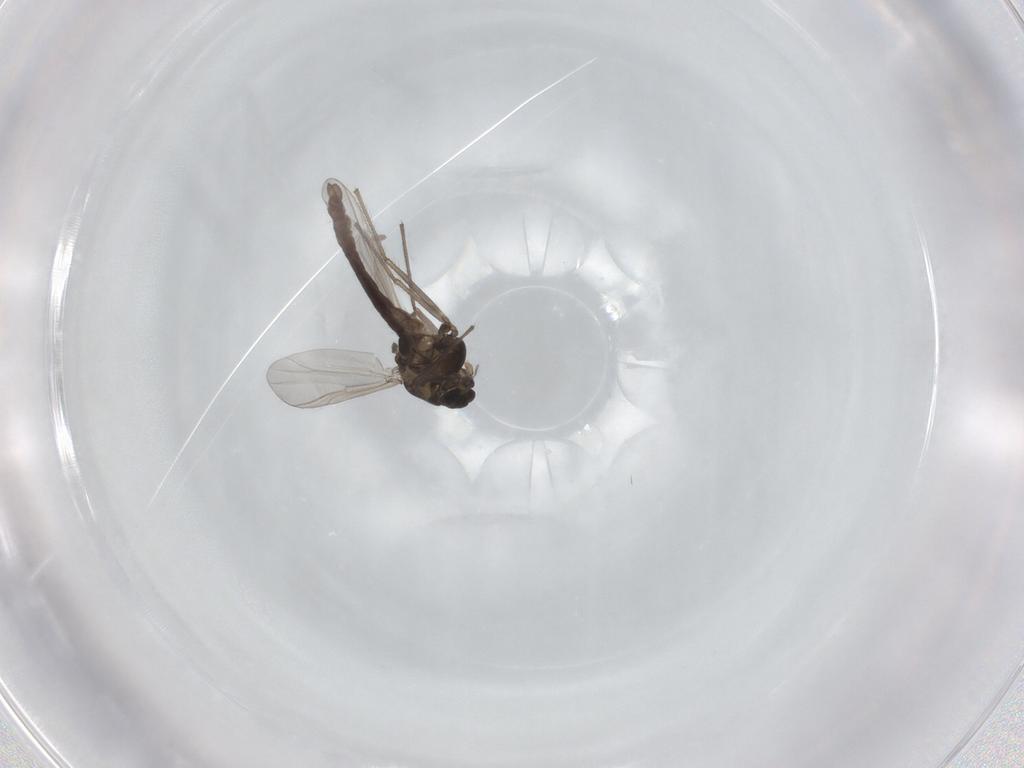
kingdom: Animalia
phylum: Arthropoda
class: Insecta
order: Diptera
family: Chironomidae
